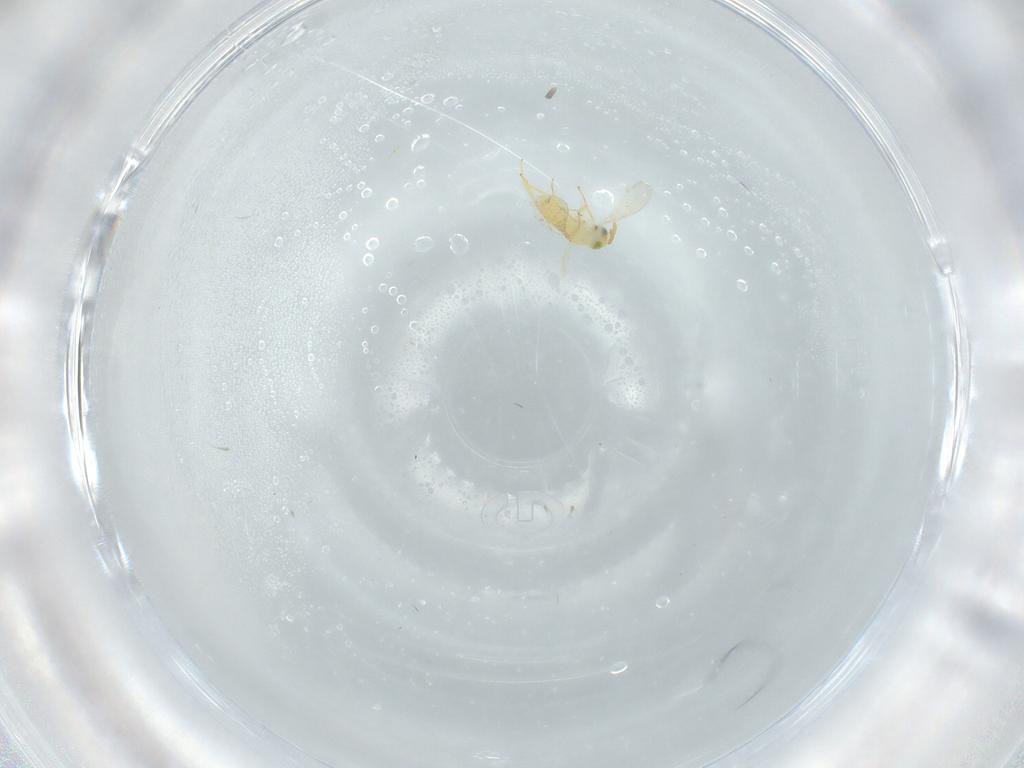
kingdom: Animalia
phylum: Arthropoda
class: Insecta
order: Hymenoptera
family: Aphelinidae
